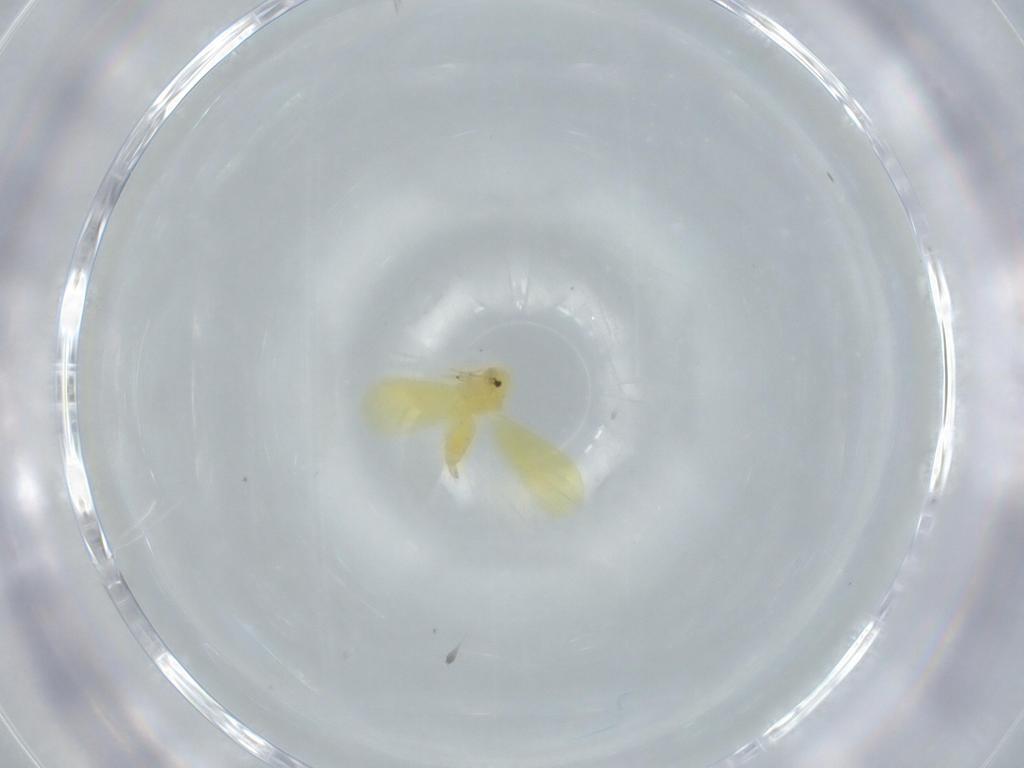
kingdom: Animalia
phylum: Arthropoda
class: Insecta
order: Hemiptera
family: Aleyrodidae
